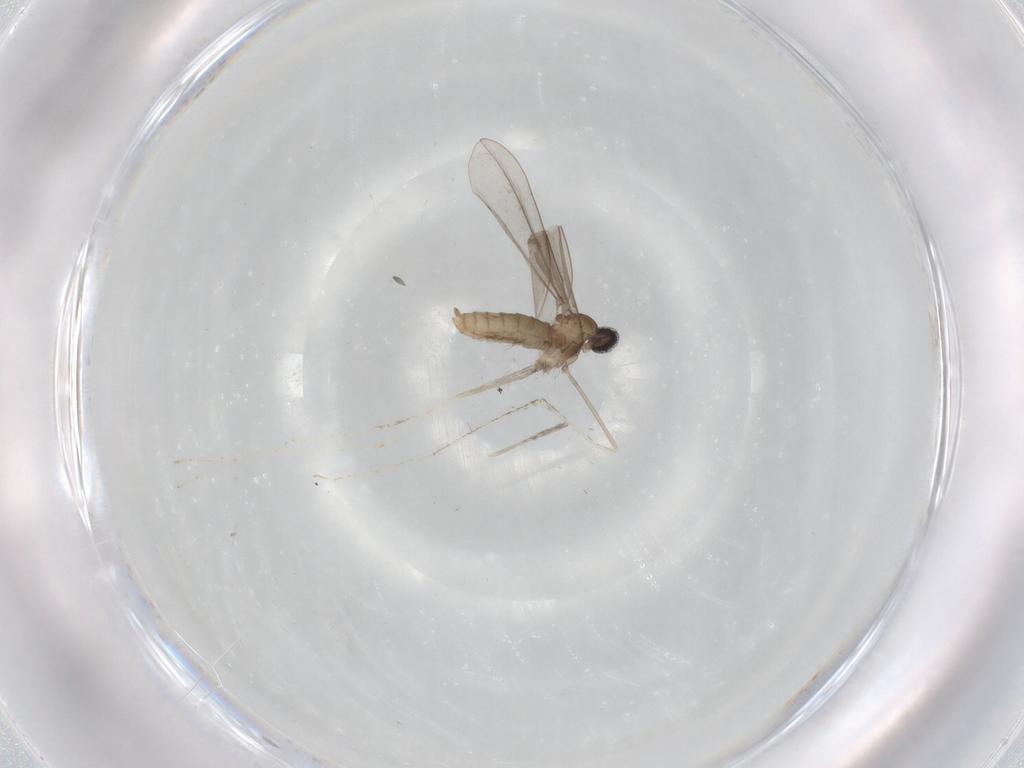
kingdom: Animalia
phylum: Arthropoda
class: Insecta
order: Diptera
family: Cecidomyiidae
